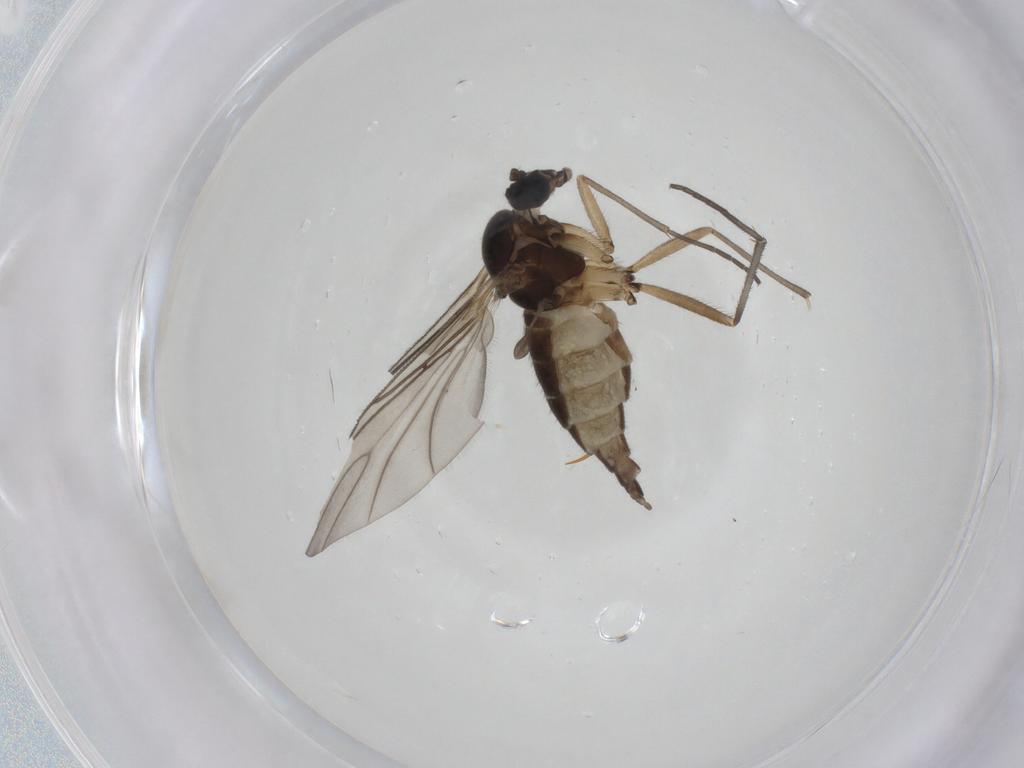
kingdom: Animalia
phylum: Arthropoda
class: Insecta
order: Diptera
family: Sciaridae
